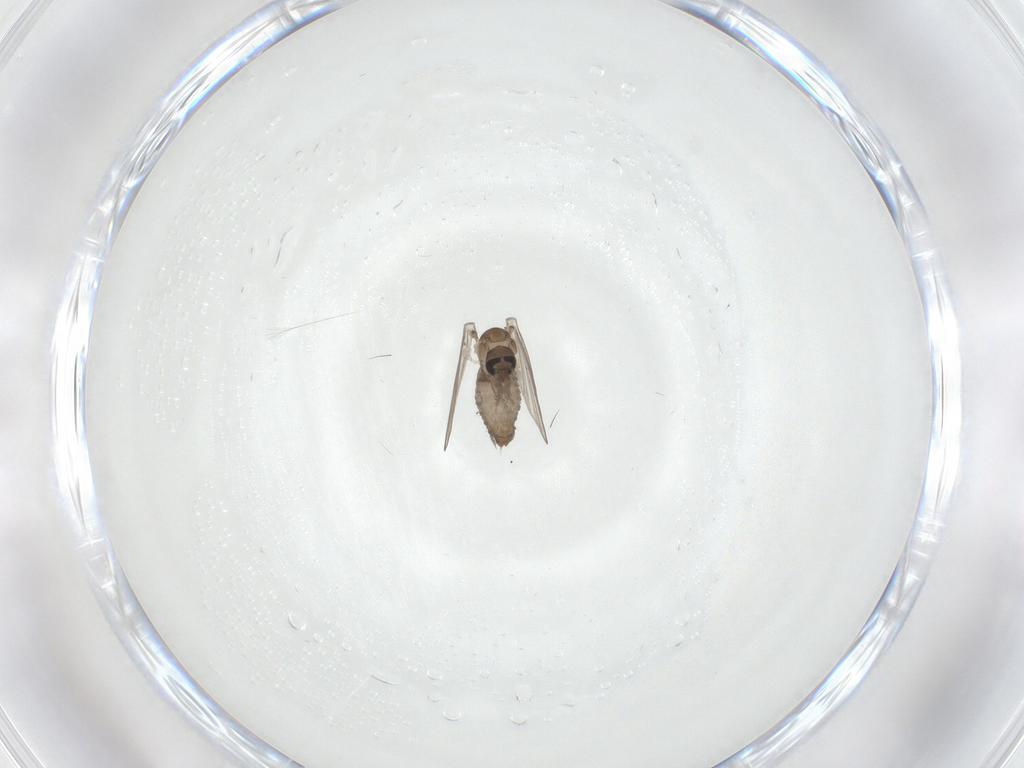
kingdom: Animalia
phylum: Arthropoda
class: Insecta
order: Diptera
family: Psychodidae
